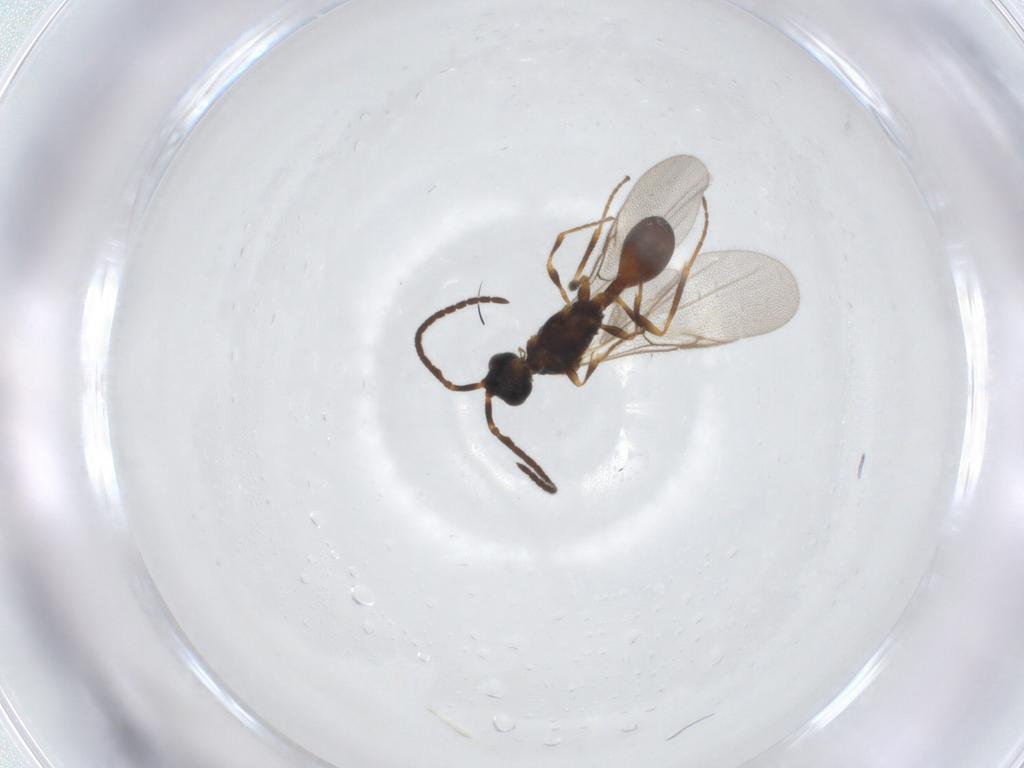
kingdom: Animalia
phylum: Arthropoda
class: Insecta
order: Hymenoptera
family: Diapriidae
